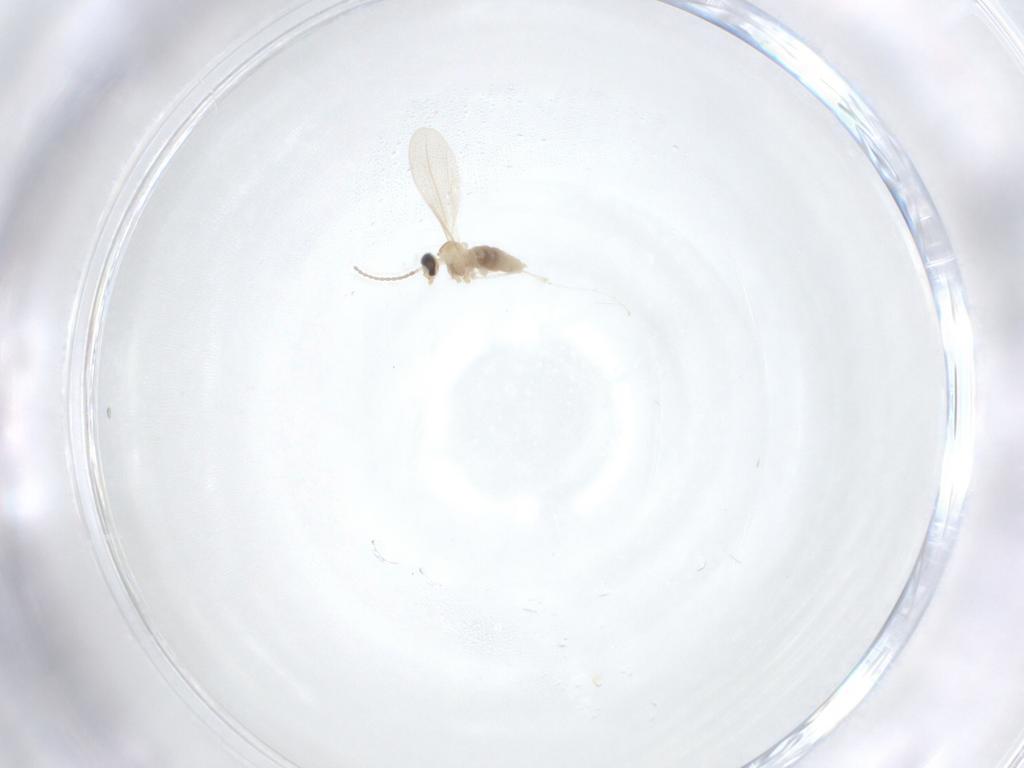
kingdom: Animalia
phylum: Arthropoda
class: Insecta
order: Diptera
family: Cecidomyiidae
